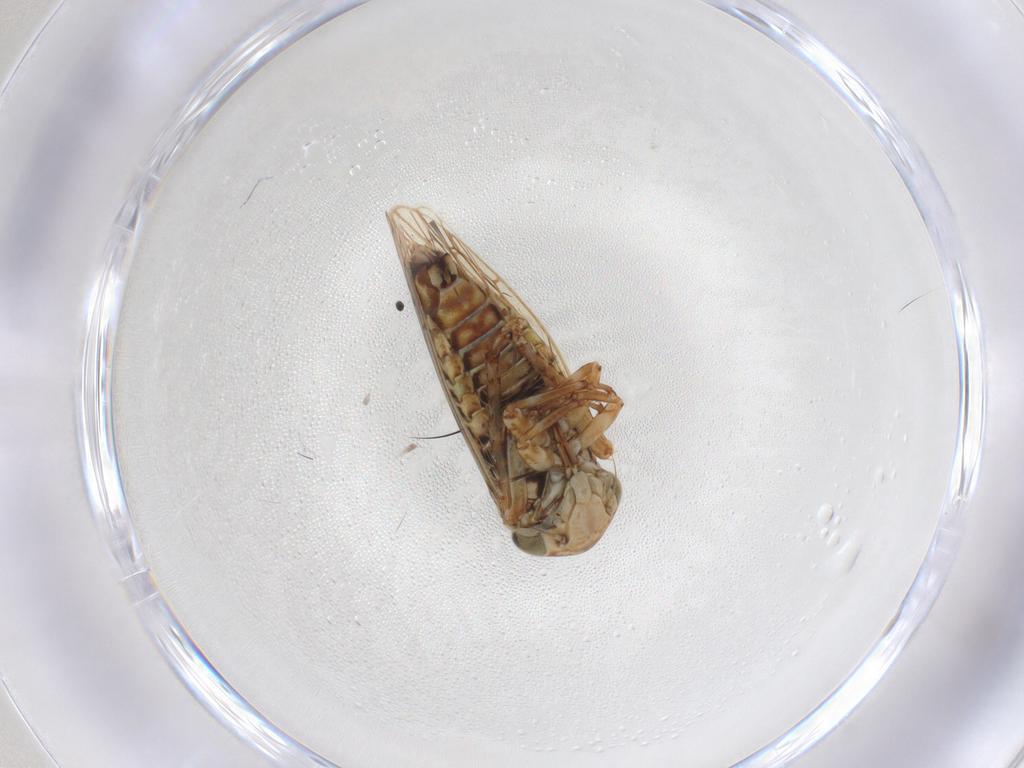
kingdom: Animalia
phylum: Arthropoda
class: Insecta
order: Hemiptera
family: Cicadellidae
